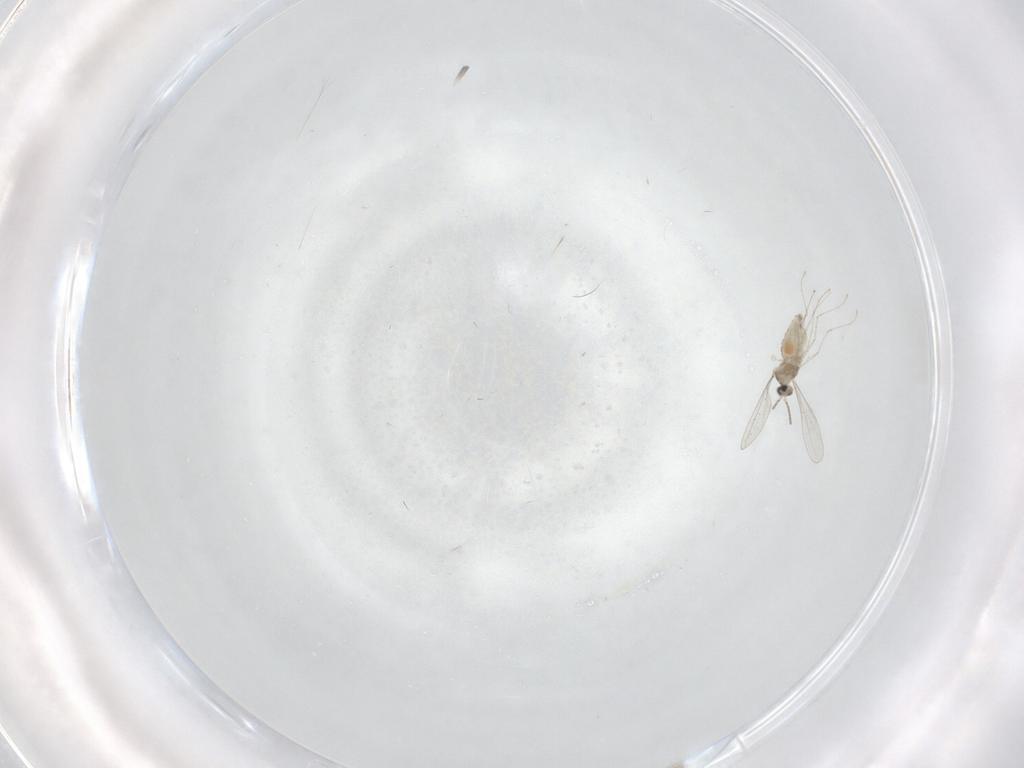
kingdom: Animalia
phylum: Arthropoda
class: Insecta
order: Diptera
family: Cecidomyiidae
